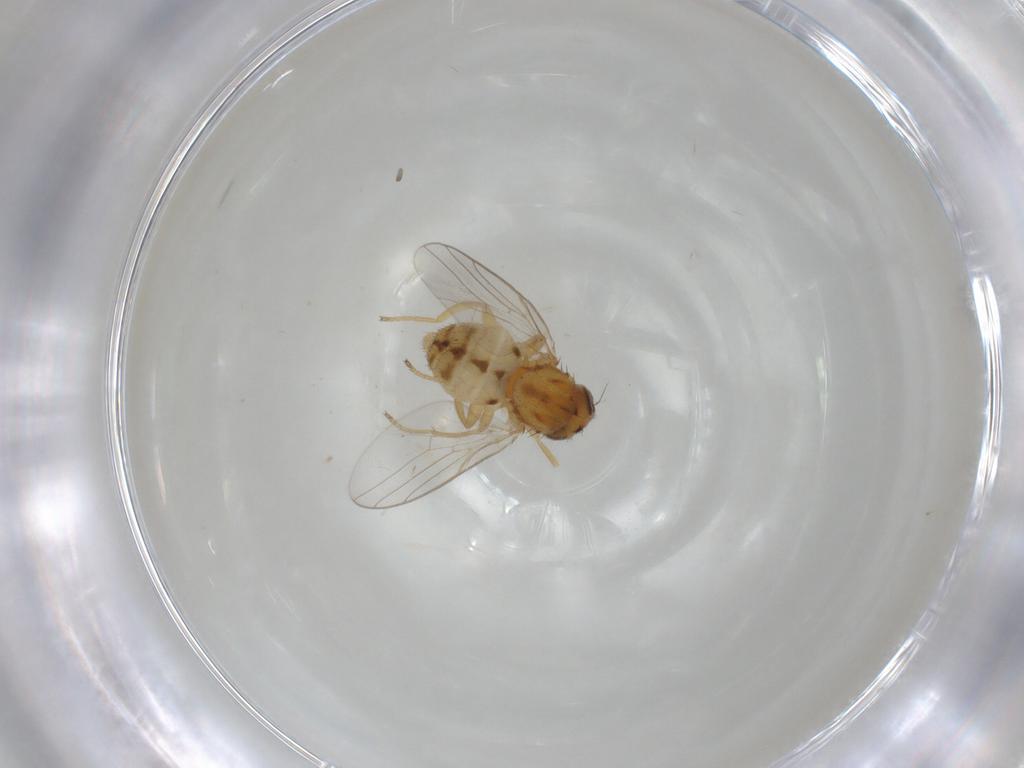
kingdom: Animalia
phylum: Arthropoda
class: Insecta
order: Diptera
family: Chloropidae
